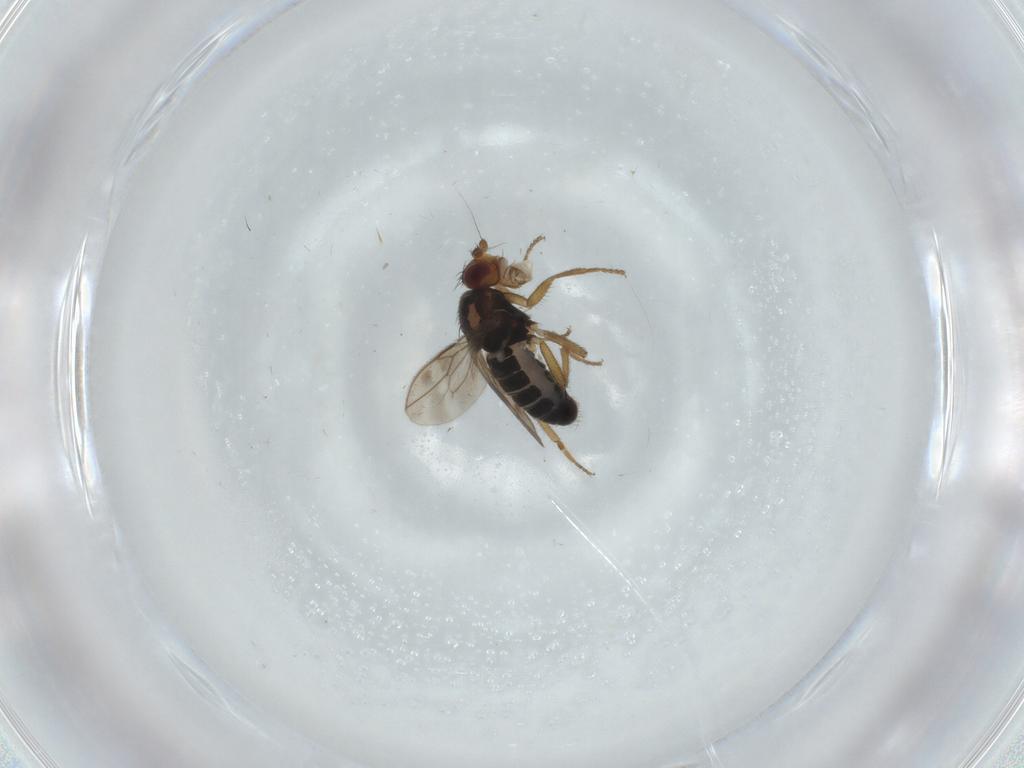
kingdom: Animalia
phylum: Arthropoda
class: Insecta
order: Diptera
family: Sphaeroceridae
